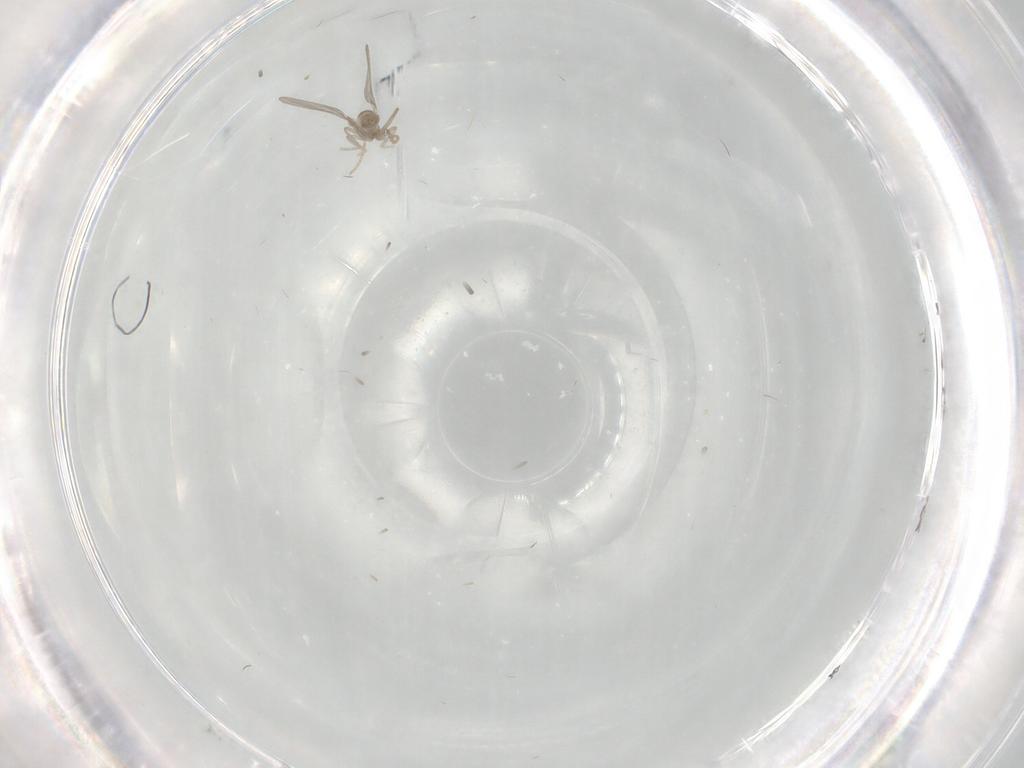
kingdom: Animalia
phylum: Arthropoda
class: Insecta
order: Diptera
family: Cecidomyiidae
